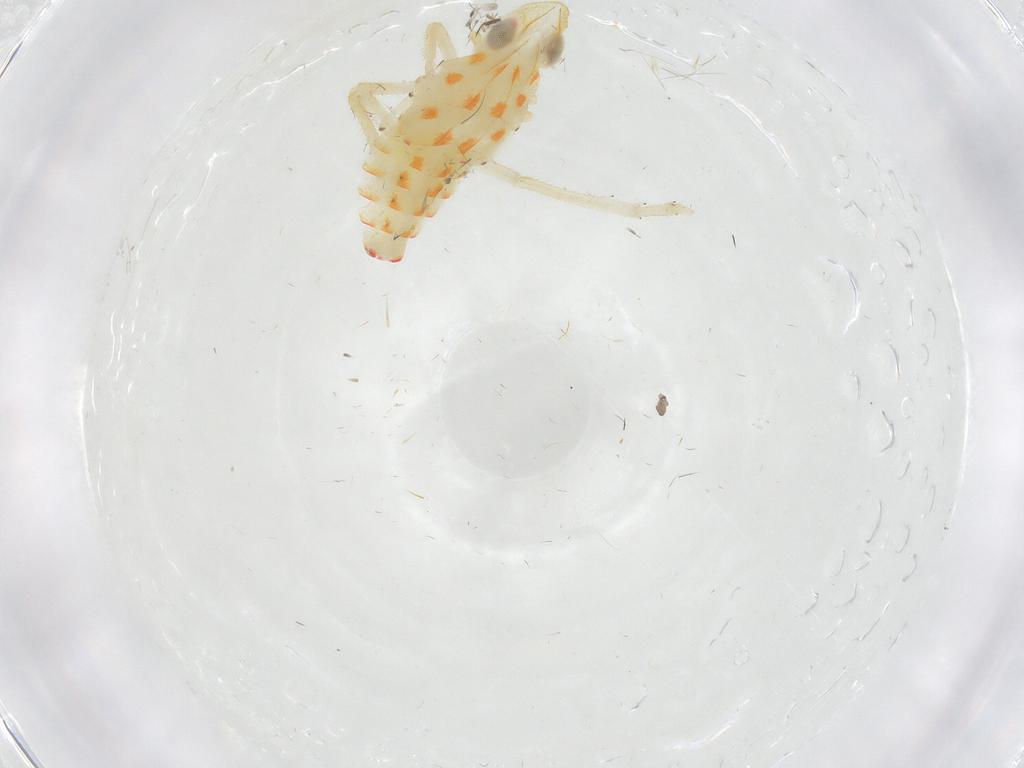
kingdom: Animalia
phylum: Arthropoda
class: Insecta
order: Hemiptera
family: Tropiduchidae
